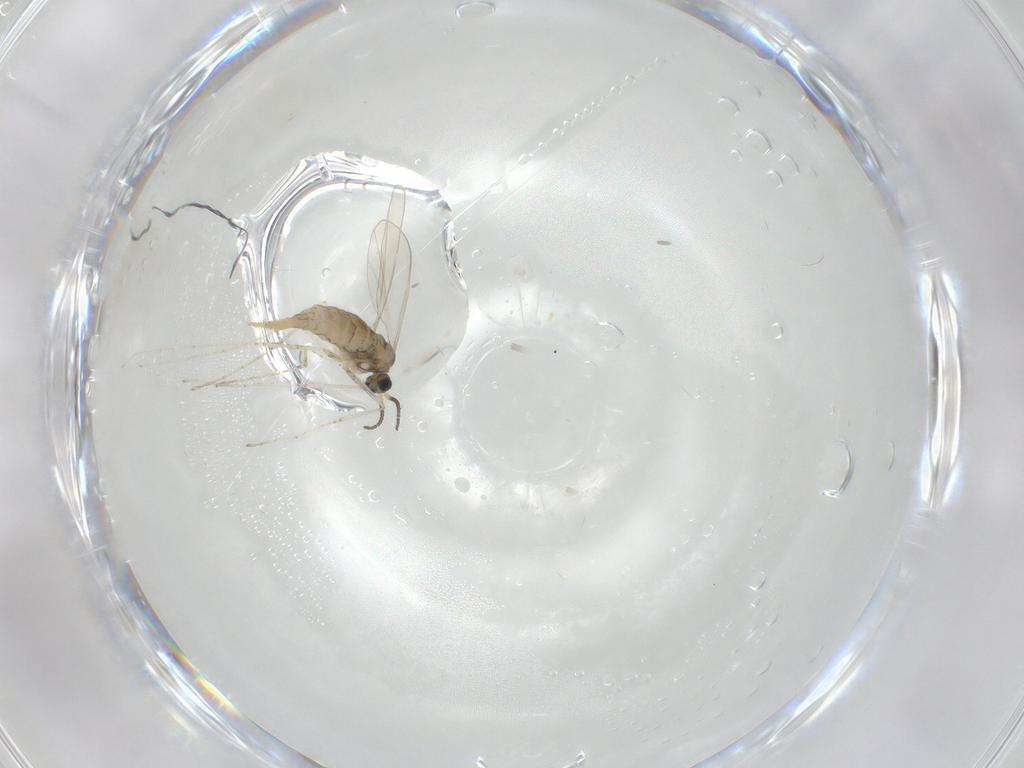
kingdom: Animalia
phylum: Arthropoda
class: Insecta
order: Diptera
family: Cecidomyiidae
